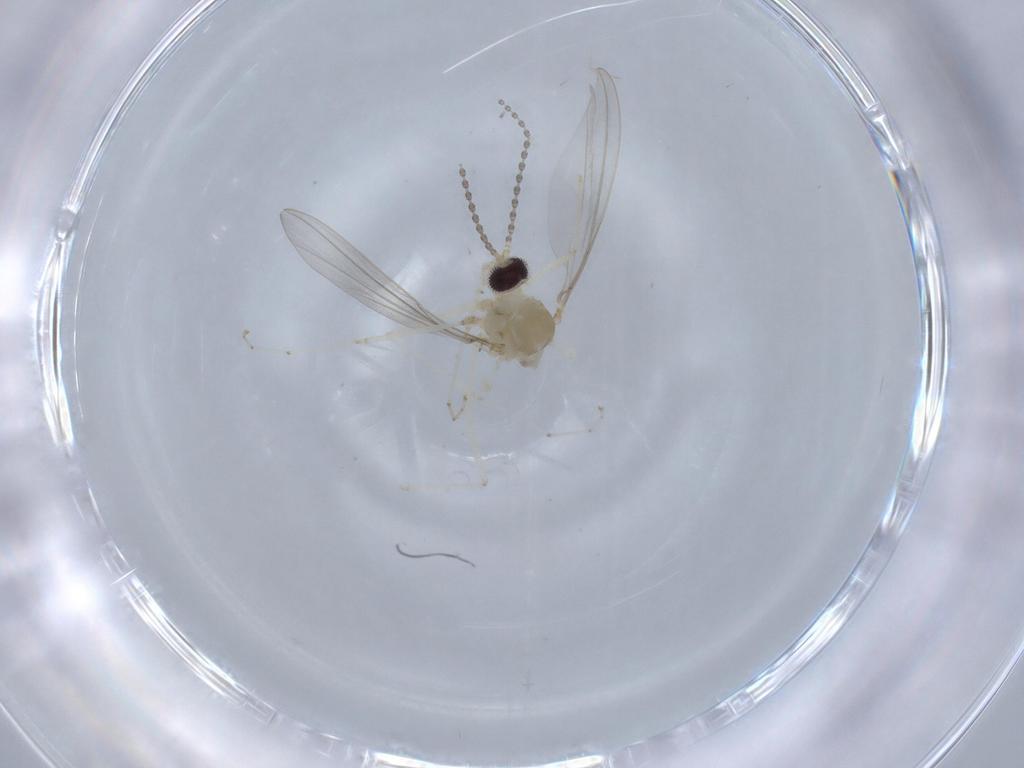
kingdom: Animalia
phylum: Arthropoda
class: Insecta
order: Diptera
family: Cecidomyiidae
